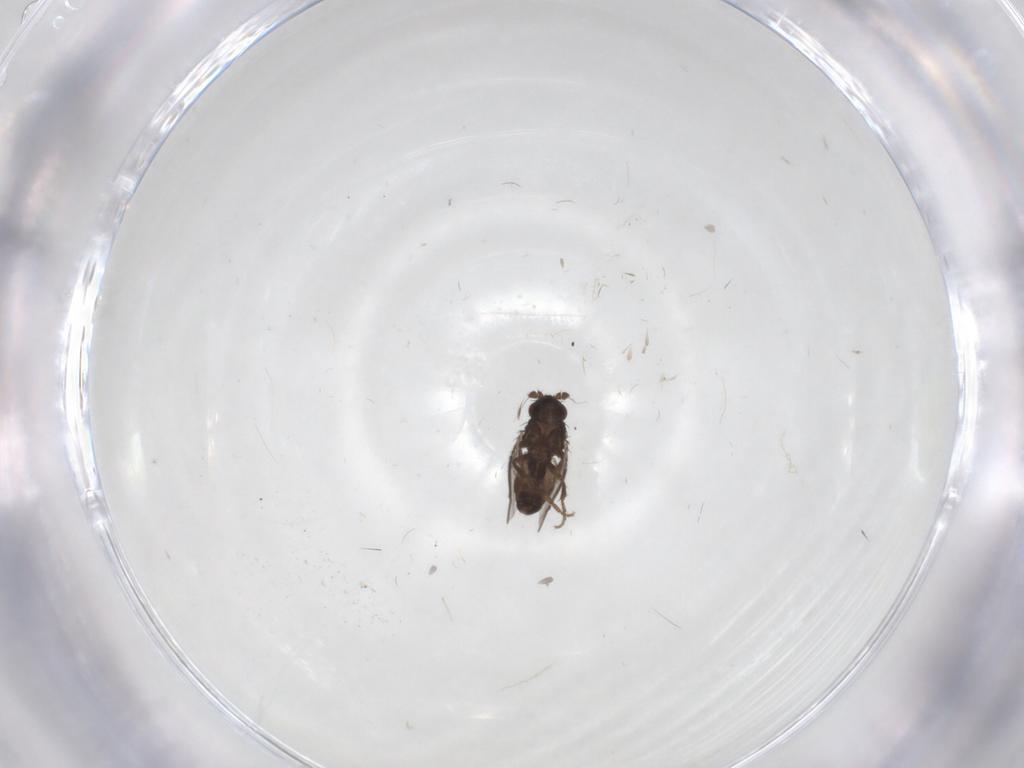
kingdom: Animalia
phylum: Arthropoda
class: Insecta
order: Diptera
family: Sphaeroceridae
